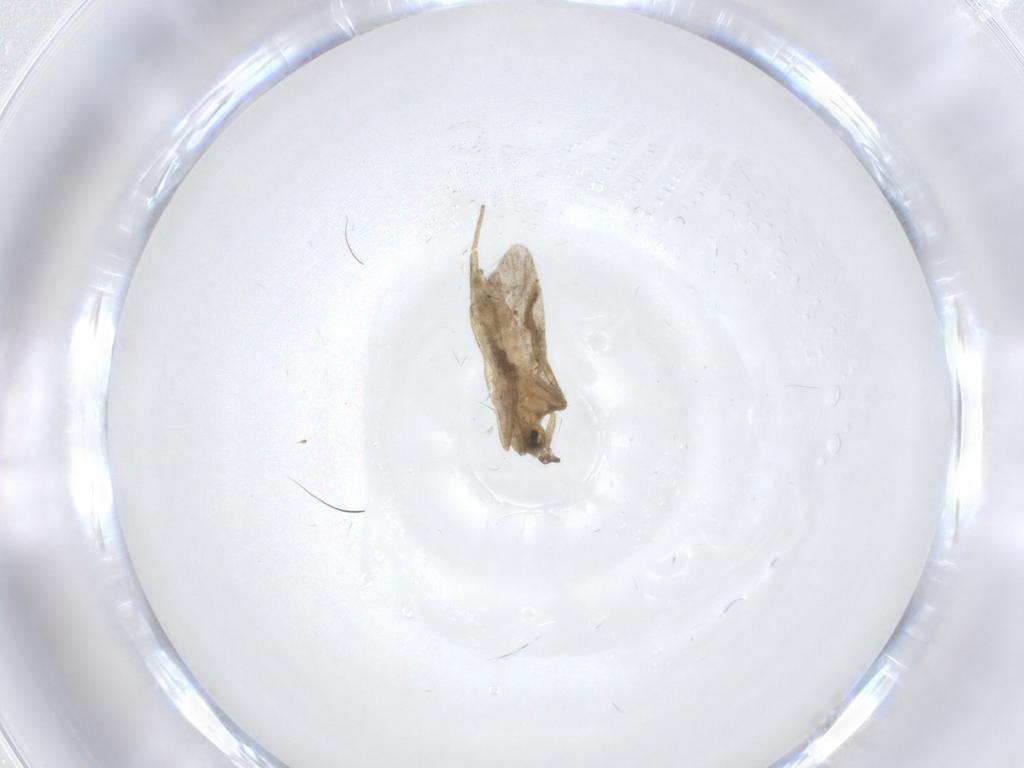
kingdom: Animalia
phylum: Arthropoda
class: Insecta
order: Diptera
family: Hybotidae
